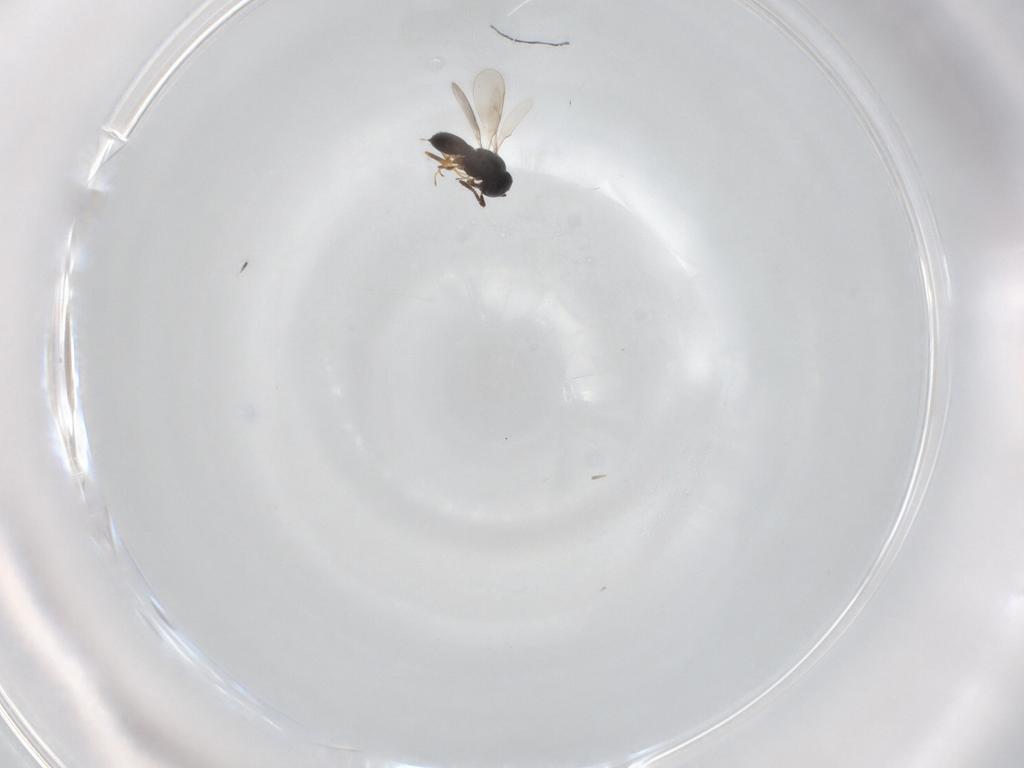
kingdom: Animalia
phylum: Arthropoda
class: Insecta
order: Hymenoptera
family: Scelionidae
